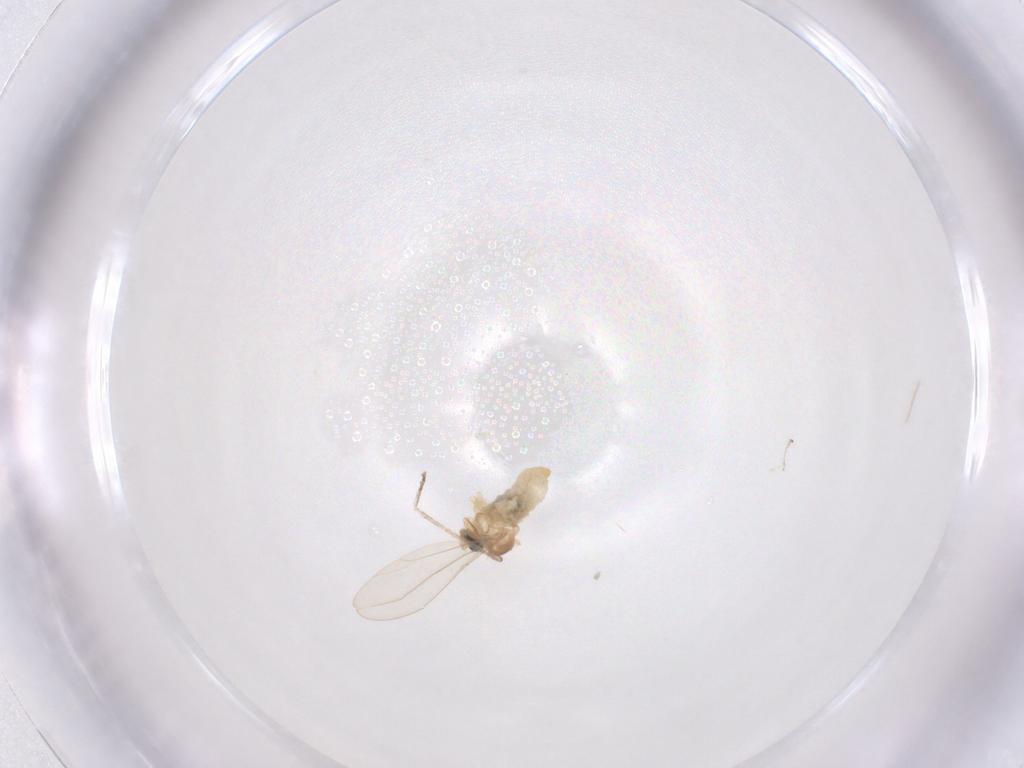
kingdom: Animalia
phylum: Arthropoda
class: Insecta
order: Diptera
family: Cecidomyiidae
